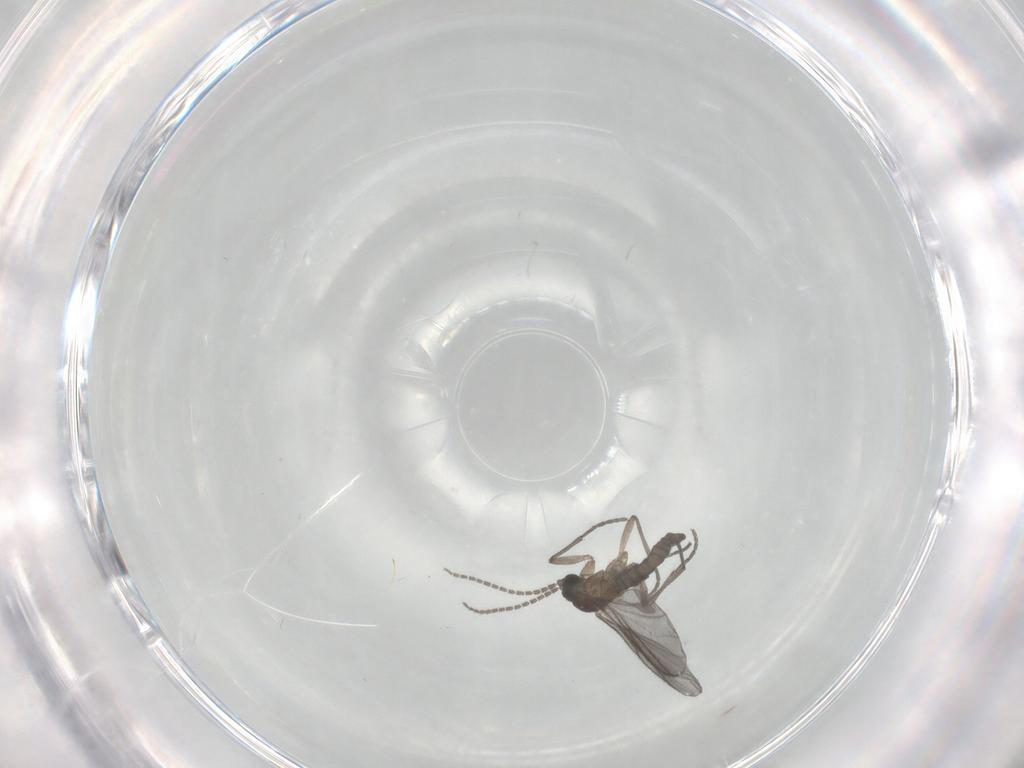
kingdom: Animalia
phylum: Arthropoda
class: Insecta
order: Diptera
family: Sciaridae
